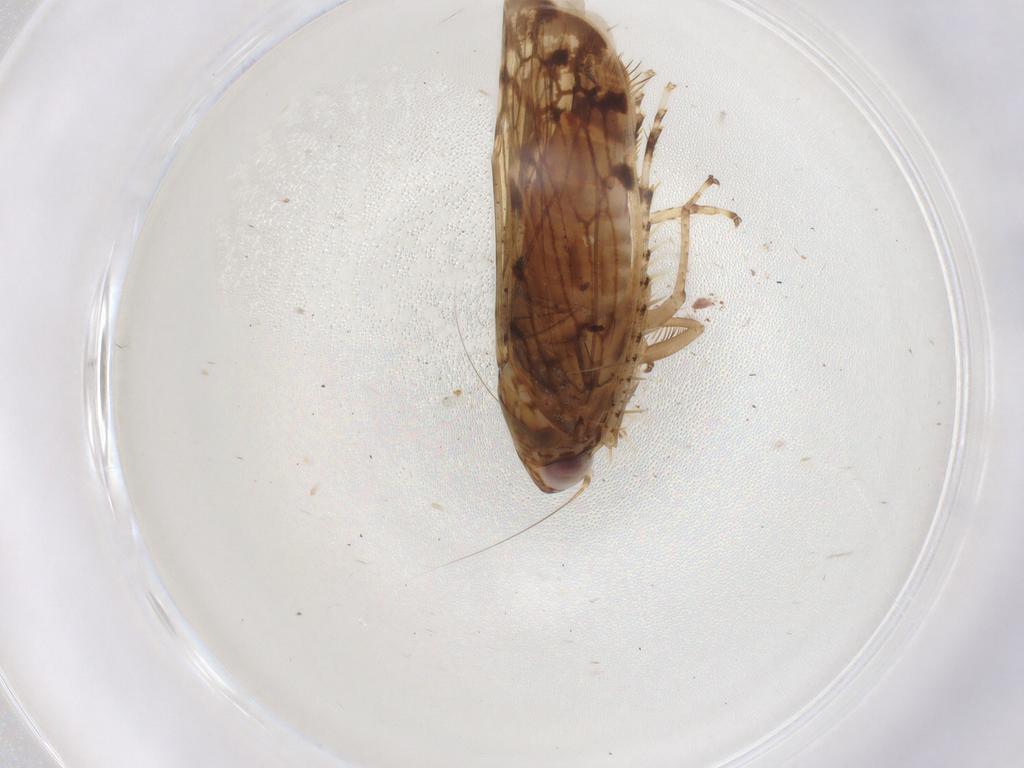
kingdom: Animalia
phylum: Arthropoda
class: Insecta
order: Hemiptera
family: Cicadellidae
